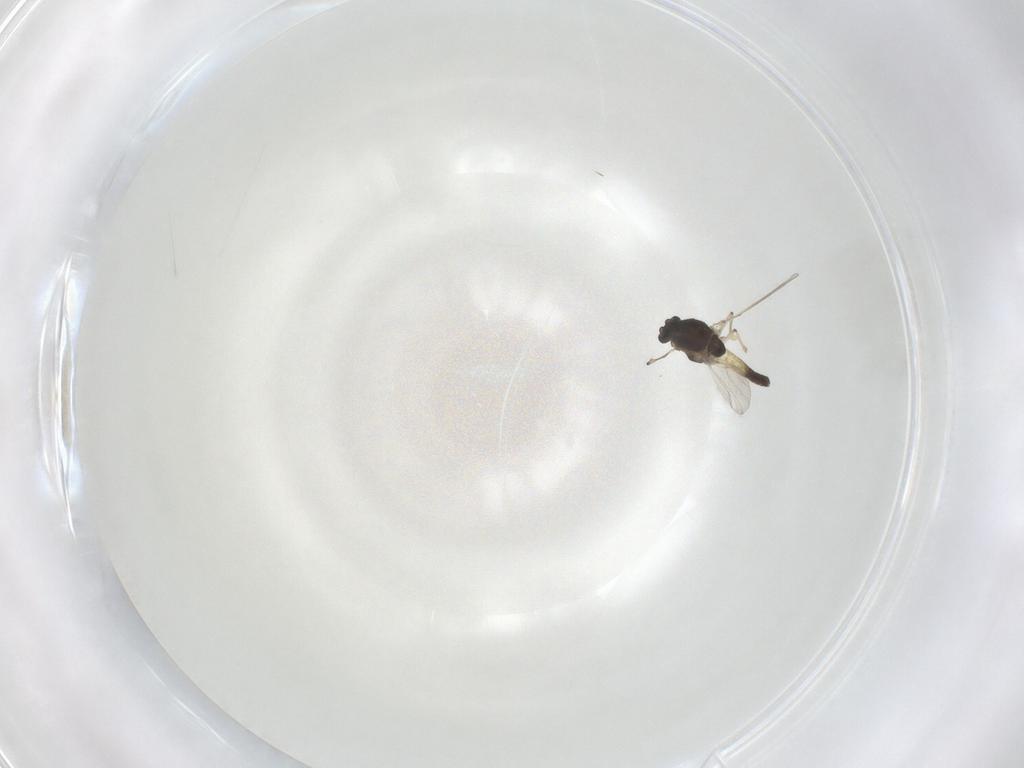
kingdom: Animalia
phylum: Arthropoda
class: Insecta
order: Diptera
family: Chironomidae
